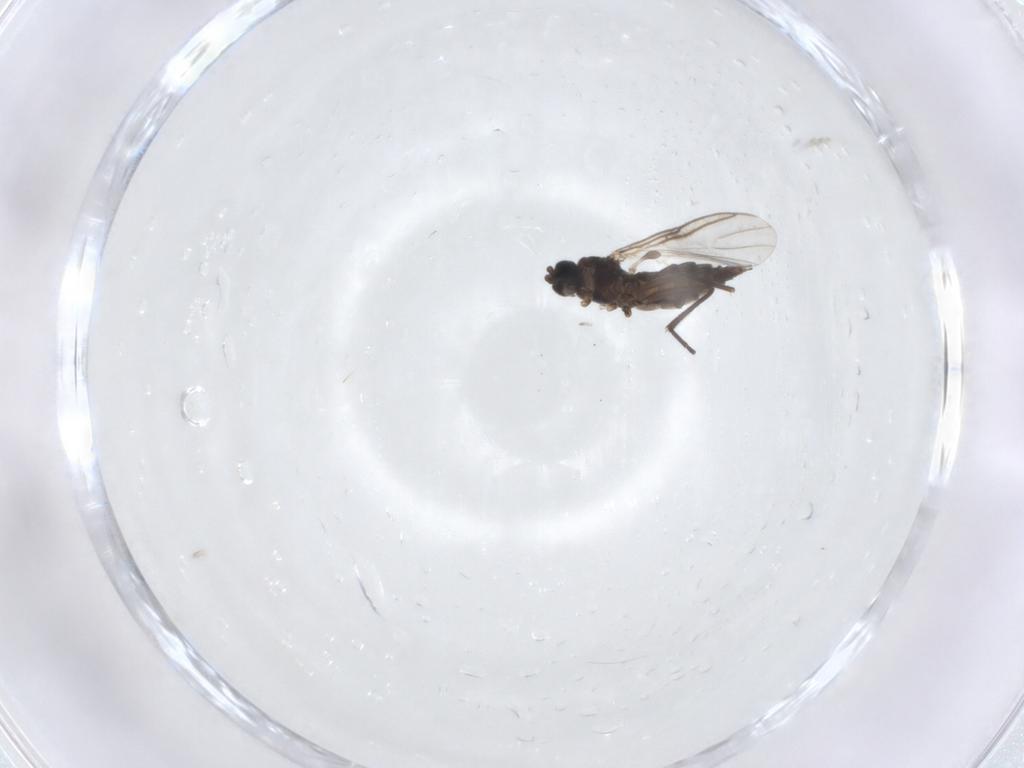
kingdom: Animalia
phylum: Arthropoda
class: Insecta
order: Diptera
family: Sciaridae
